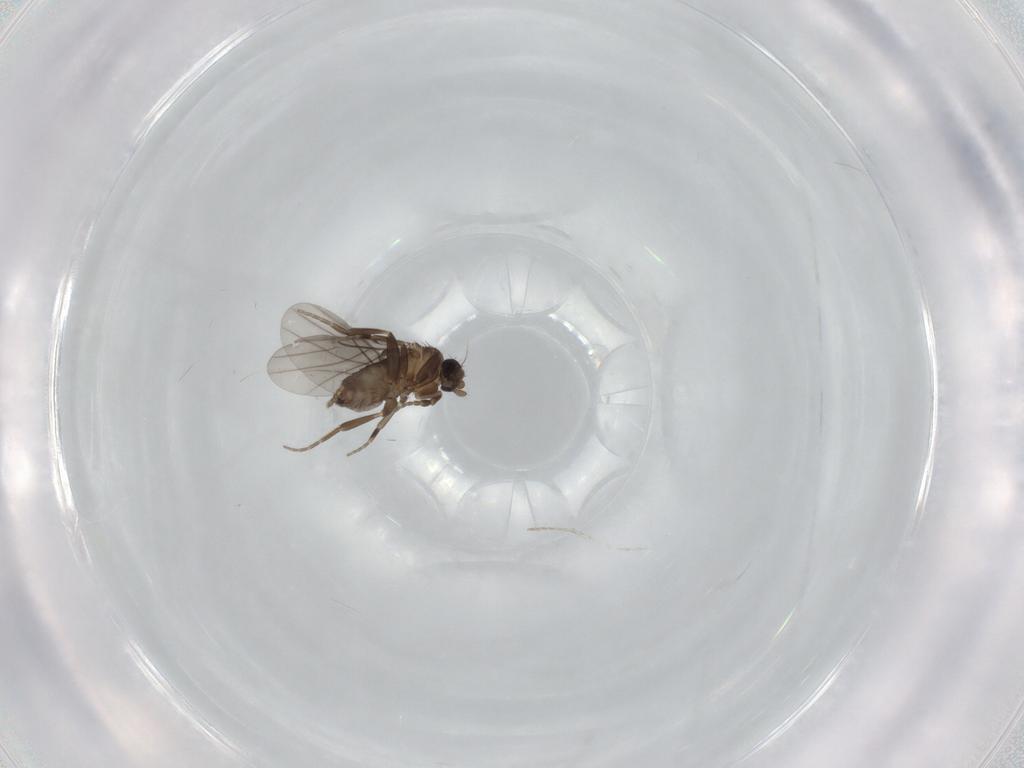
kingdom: Animalia
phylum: Arthropoda
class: Insecta
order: Diptera
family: Phoridae
